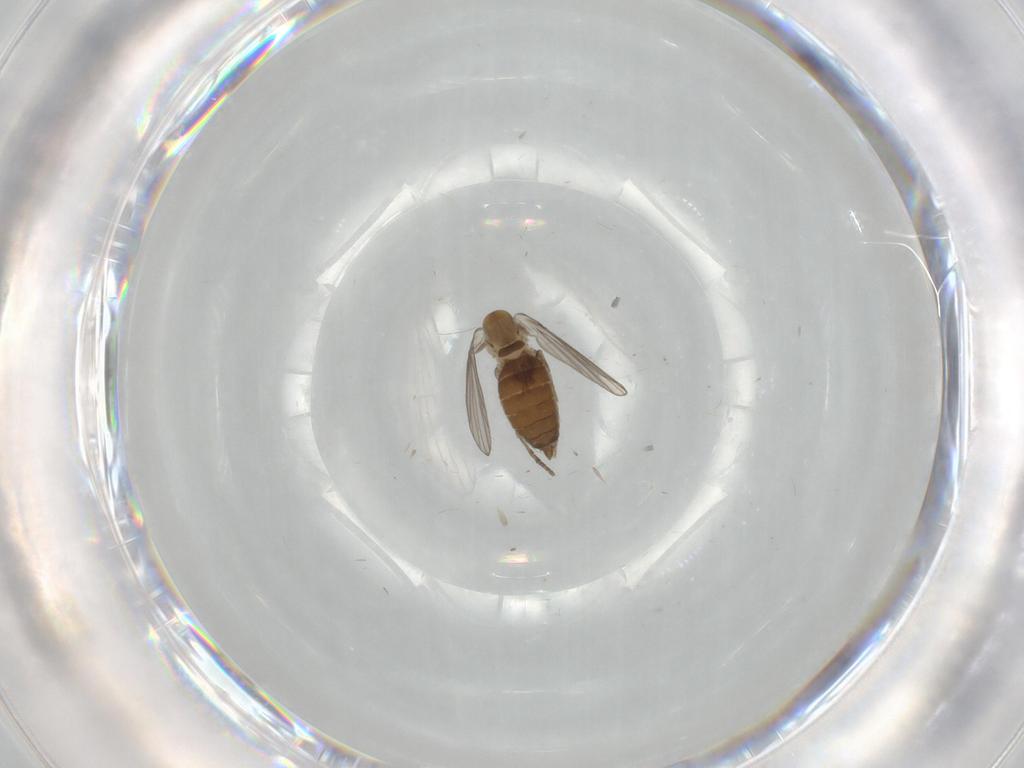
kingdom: Animalia
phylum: Arthropoda
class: Insecta
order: Diptera
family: Psychodidae
